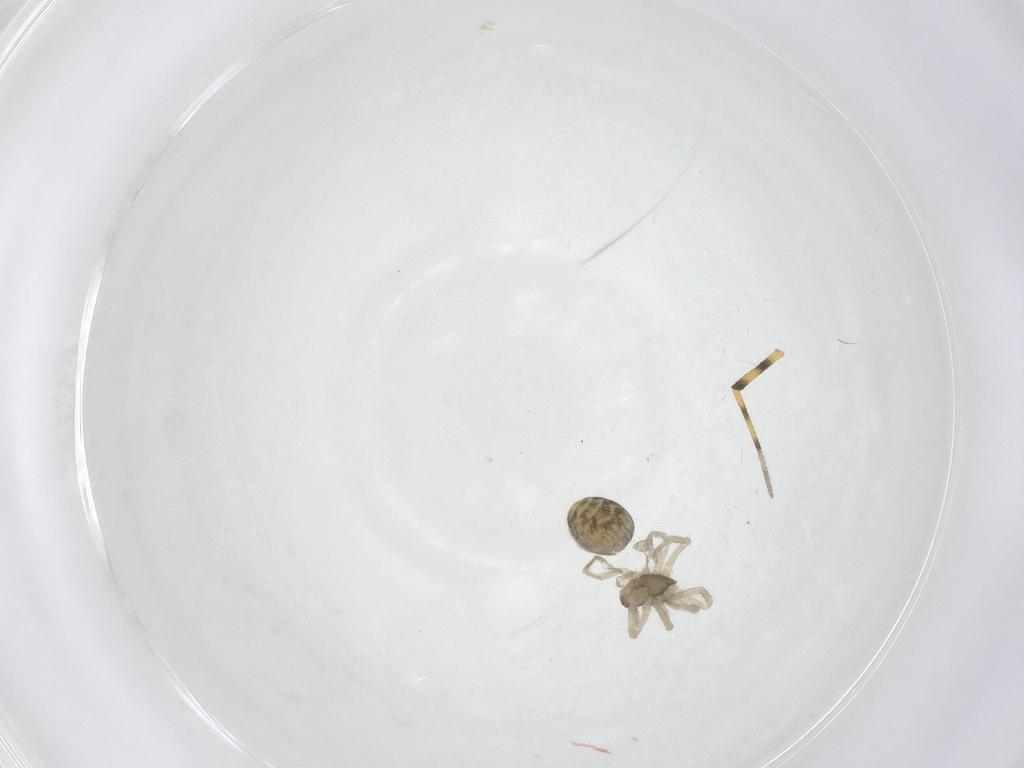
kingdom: Animalia
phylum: Arthropoda
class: Arachnida
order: Araneae
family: Dictynidae
